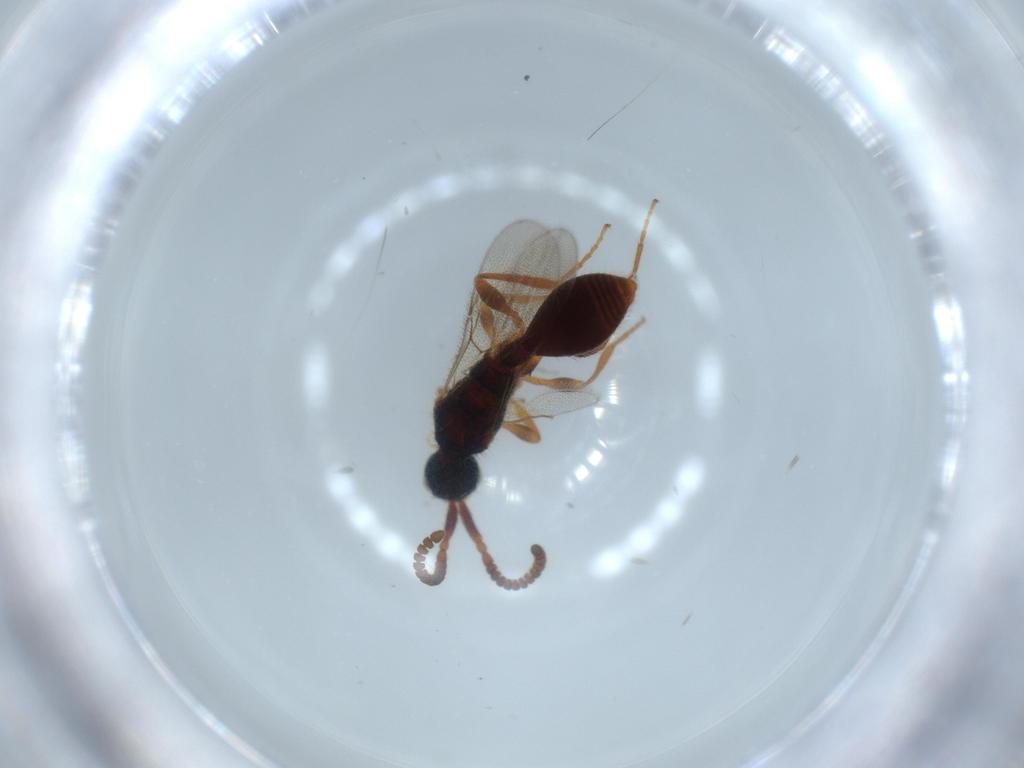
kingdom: Animalia
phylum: Arthropoda
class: Insecta
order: Hymenoptera
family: Diapriidae
